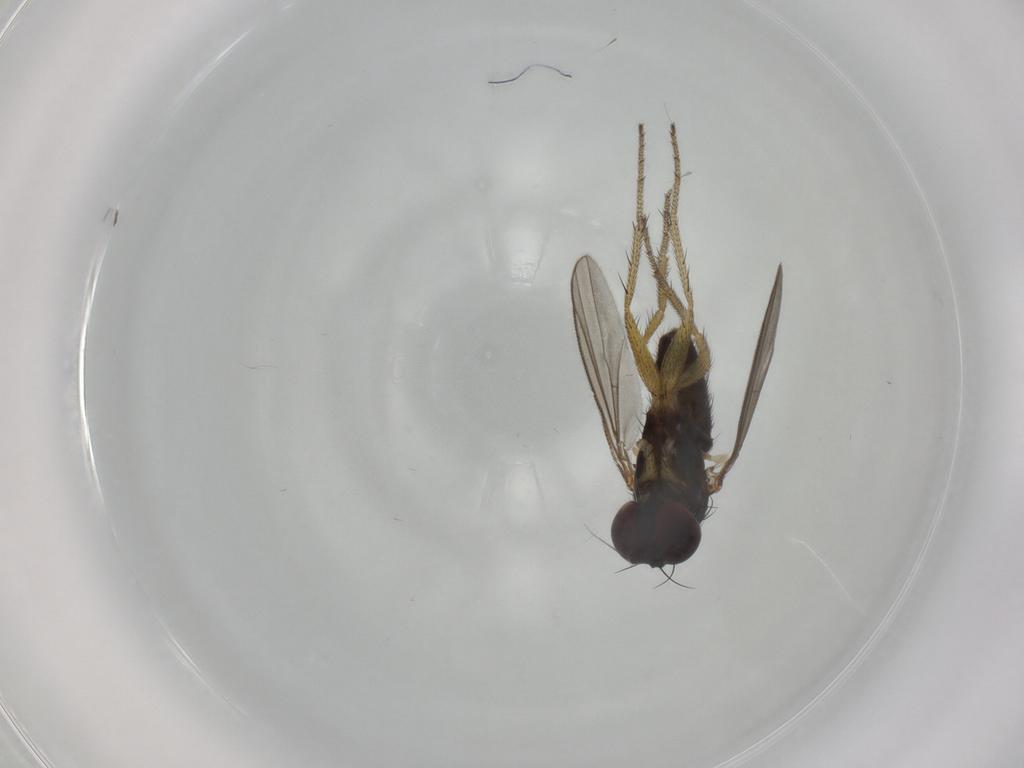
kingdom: Animalia
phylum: Arthropoda
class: Insecta
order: Diptera
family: Dolichopodidae
